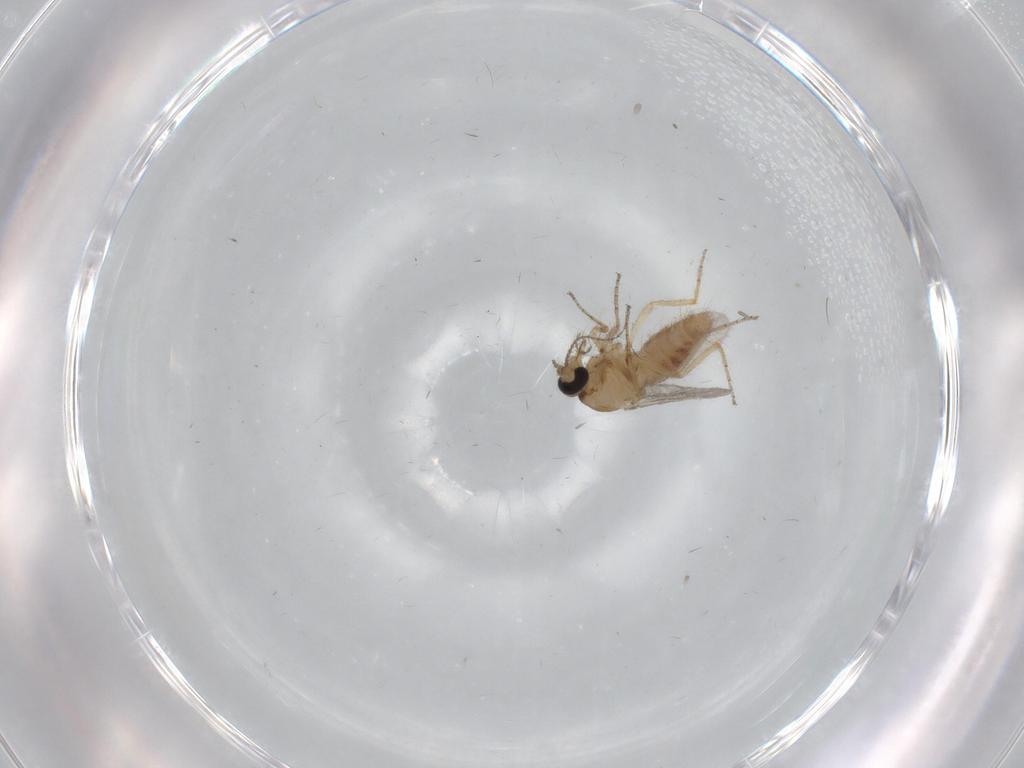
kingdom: Animalia
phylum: Arthropoda
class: Insecta
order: Diptera
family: Ceratopogonidae
